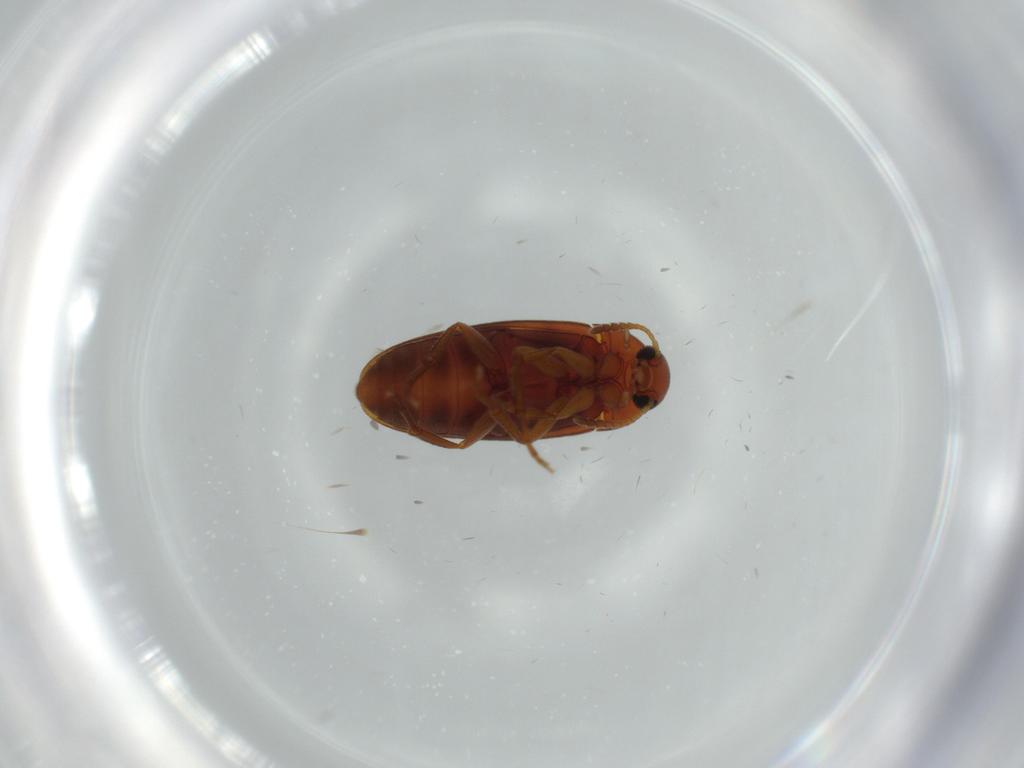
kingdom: Animalia
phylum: Arthropoda
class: Insecta
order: Coleoptera
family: Scraptiidae
